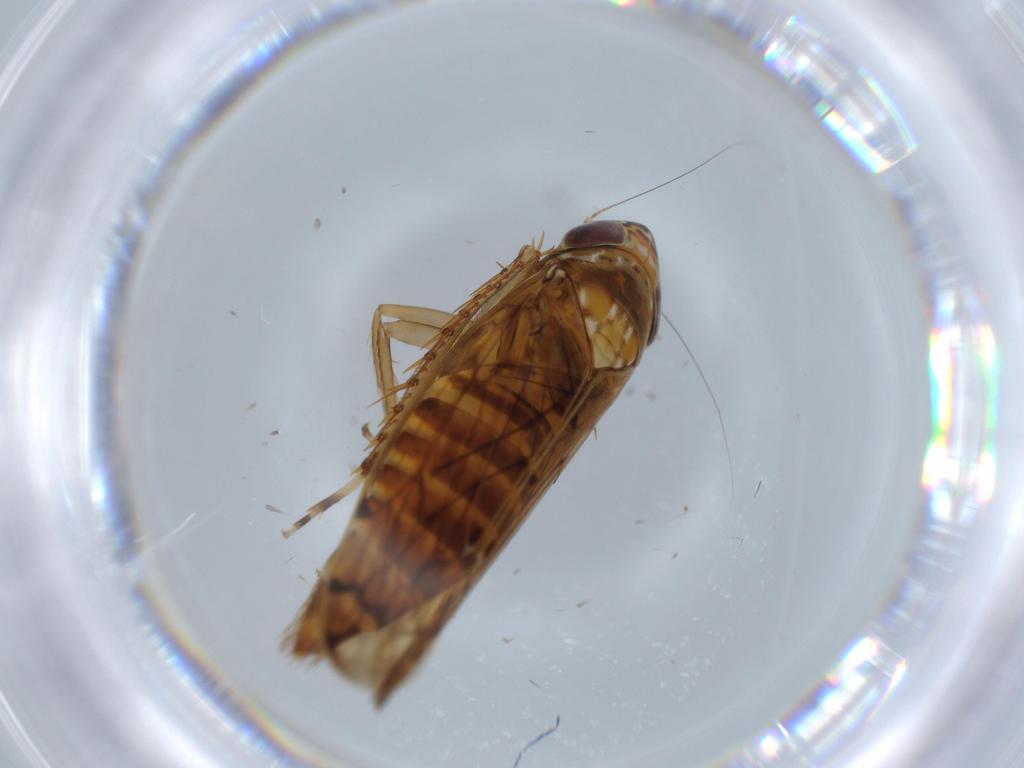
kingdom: Animalia
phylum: Arthropoda
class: Insecta
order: Hemiptera
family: Cicadellidae
